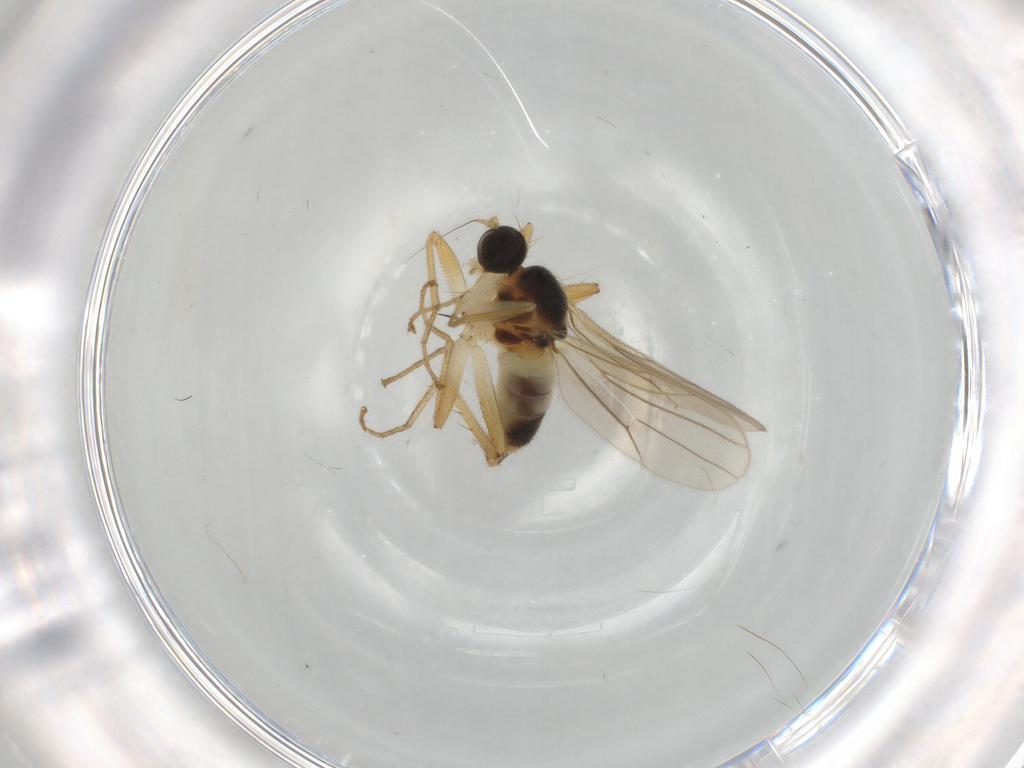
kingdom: Animalia
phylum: Arthropoda
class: Insecta
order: Diptera
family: Hybotidae
